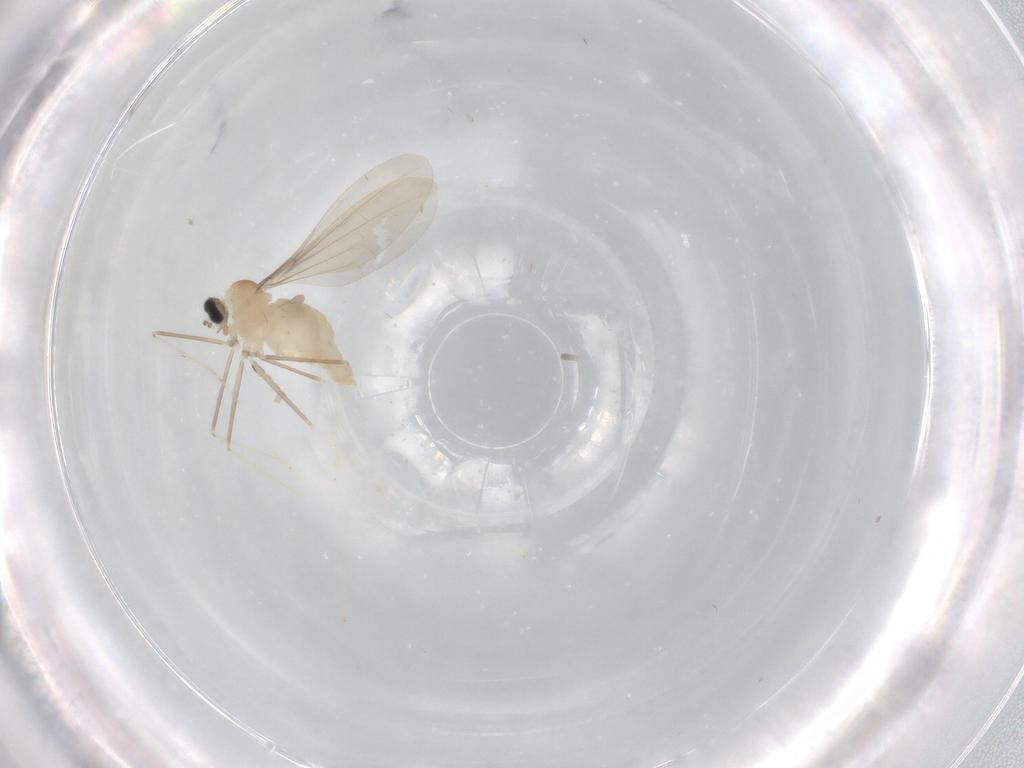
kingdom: Animalia
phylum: Arthropoda
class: Insecta
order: Diptera
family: Cecidomyiidae
